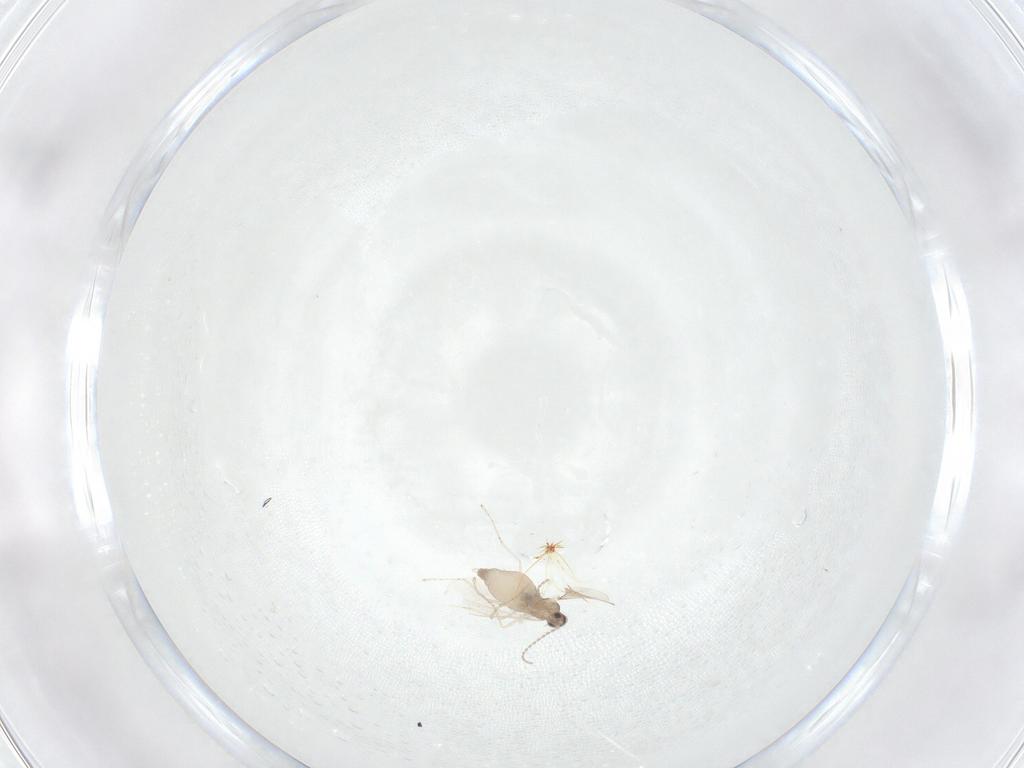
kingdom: Animalia
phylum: Arthropoda
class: Insecta
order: Diptera
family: Cecidomyiidae
